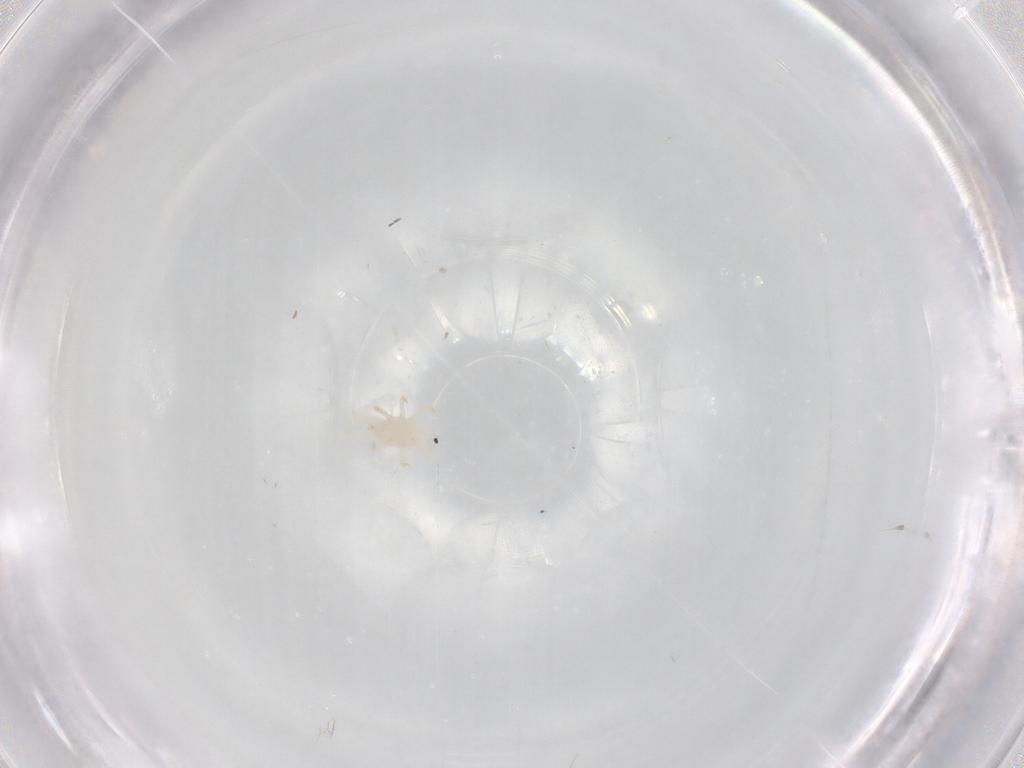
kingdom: Animalia
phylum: Arthropoda
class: Arachnida
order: Mesostigmata
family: Laelapidae
